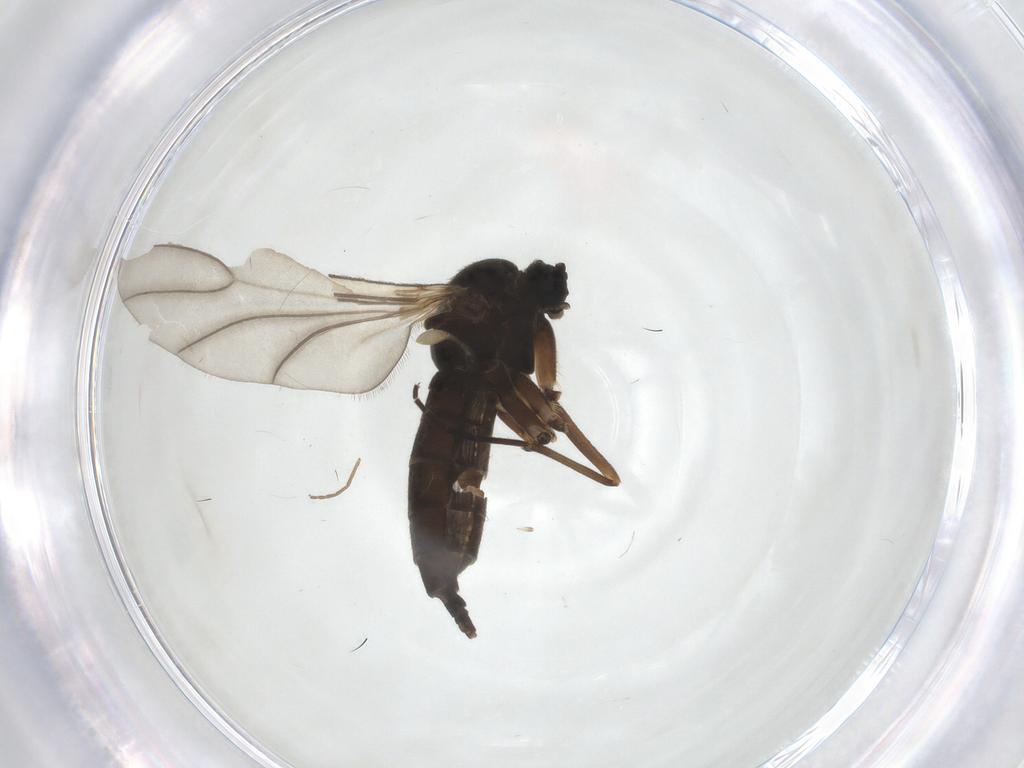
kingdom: Animalia
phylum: Arthropoda
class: Insecta
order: Diptera
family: Sciaridae
